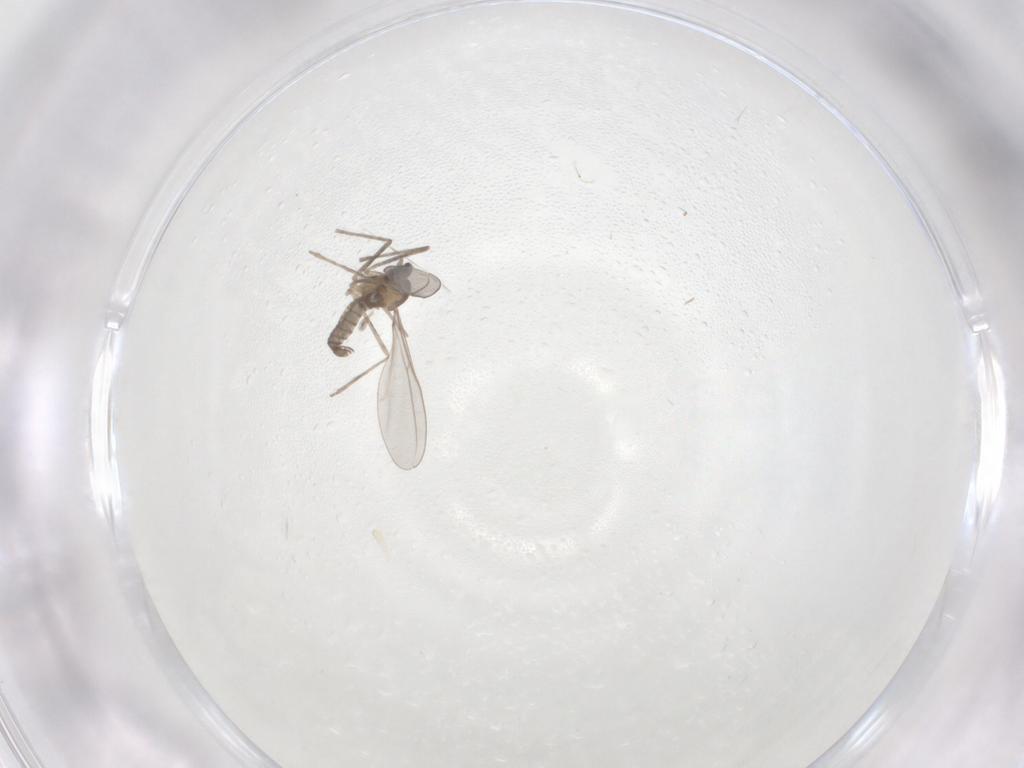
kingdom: Animalia
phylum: Arthropoda
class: Insecta
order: Diptera
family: Cecidomyiidae
